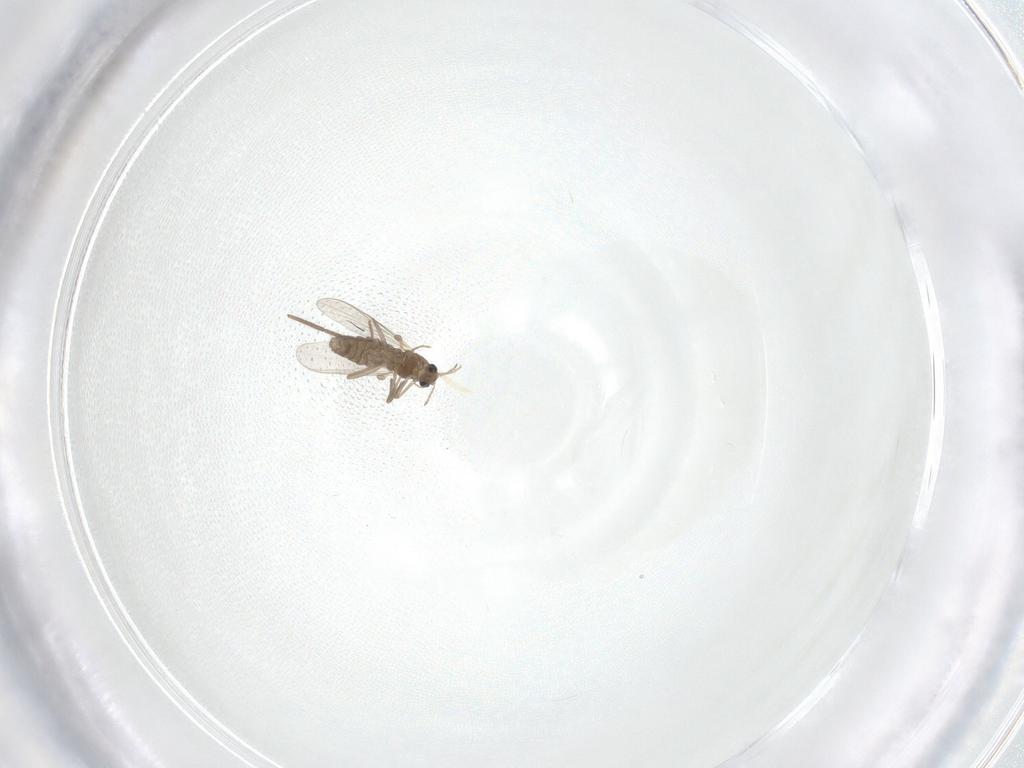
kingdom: Animalia
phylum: Arthropoda
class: Insecta
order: Diptera
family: Chironomidae
